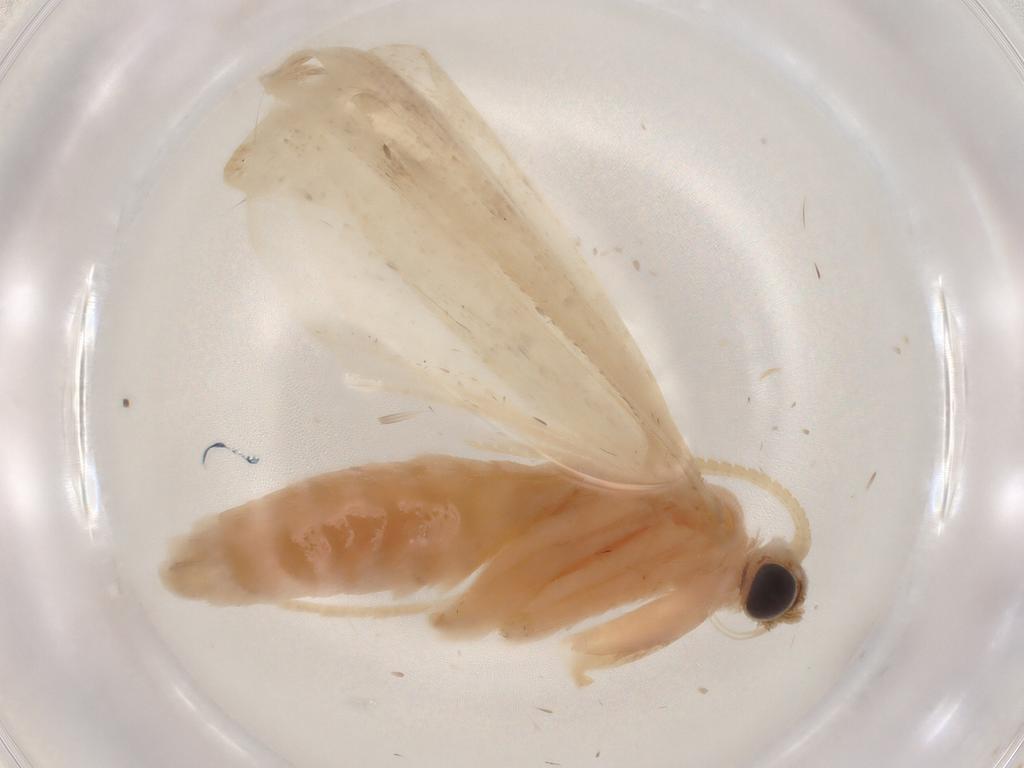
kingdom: Animalia
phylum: Arthropoda
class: Insecta
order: Lepidoptera
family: Crambidae
